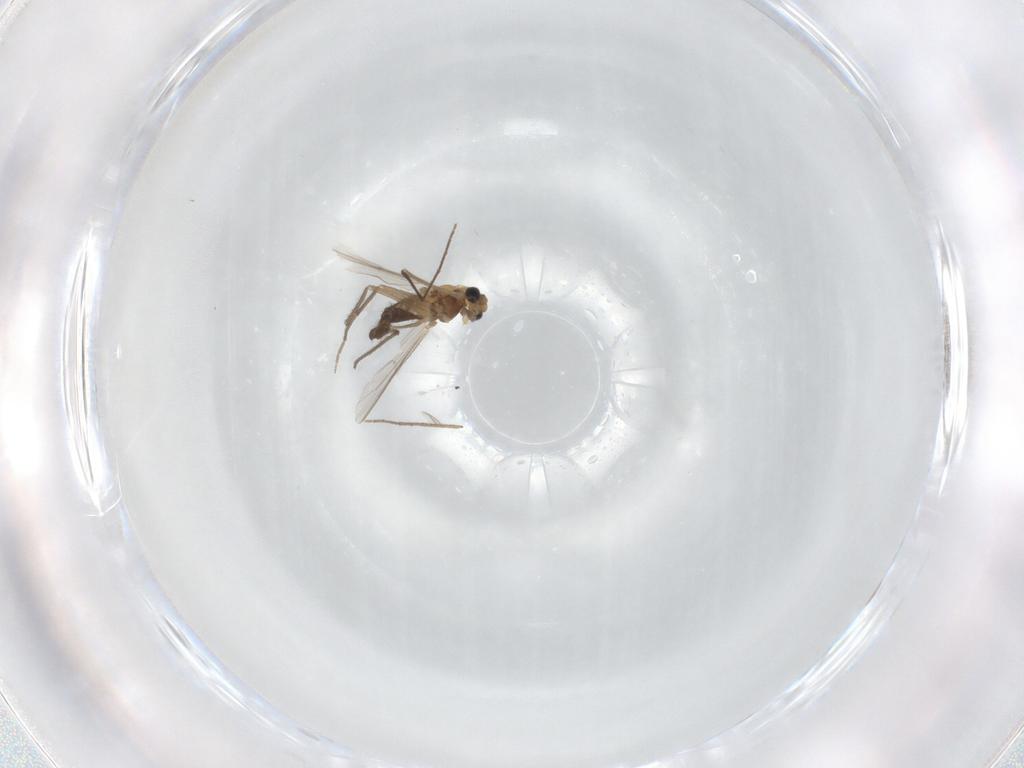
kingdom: Animalia
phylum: Arthropoda
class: Insecta
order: Diptera
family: Chironomidae
